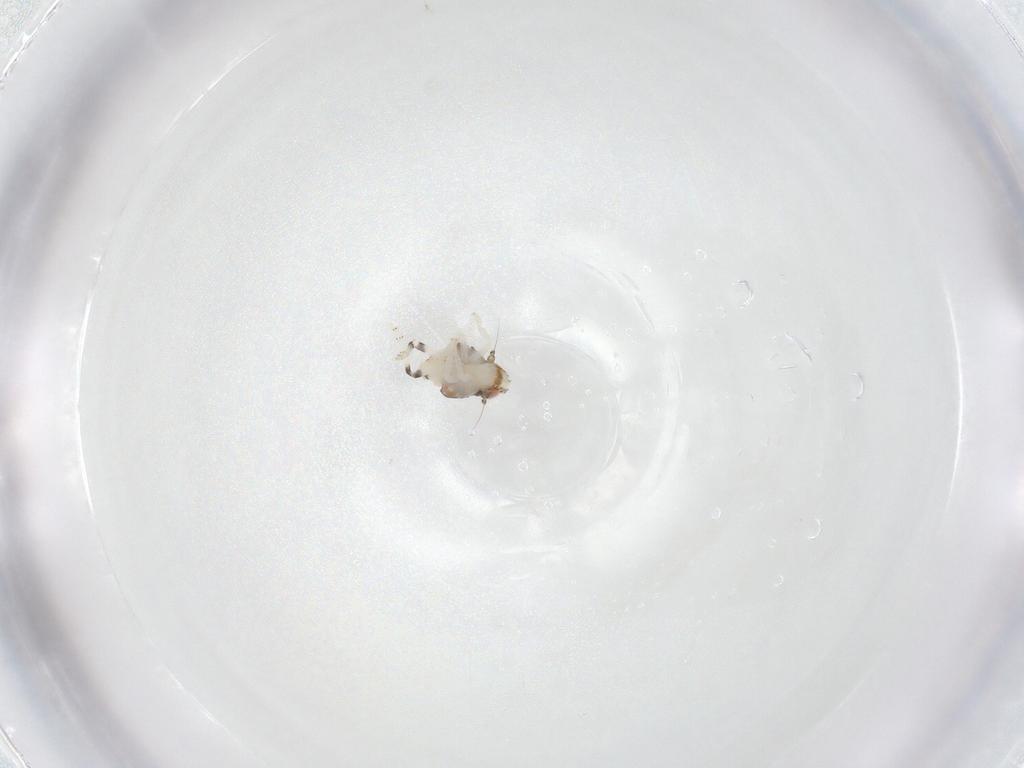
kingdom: Animalia
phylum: Arthropoda
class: Insecta
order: Hemiptera
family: Nogodinidae
